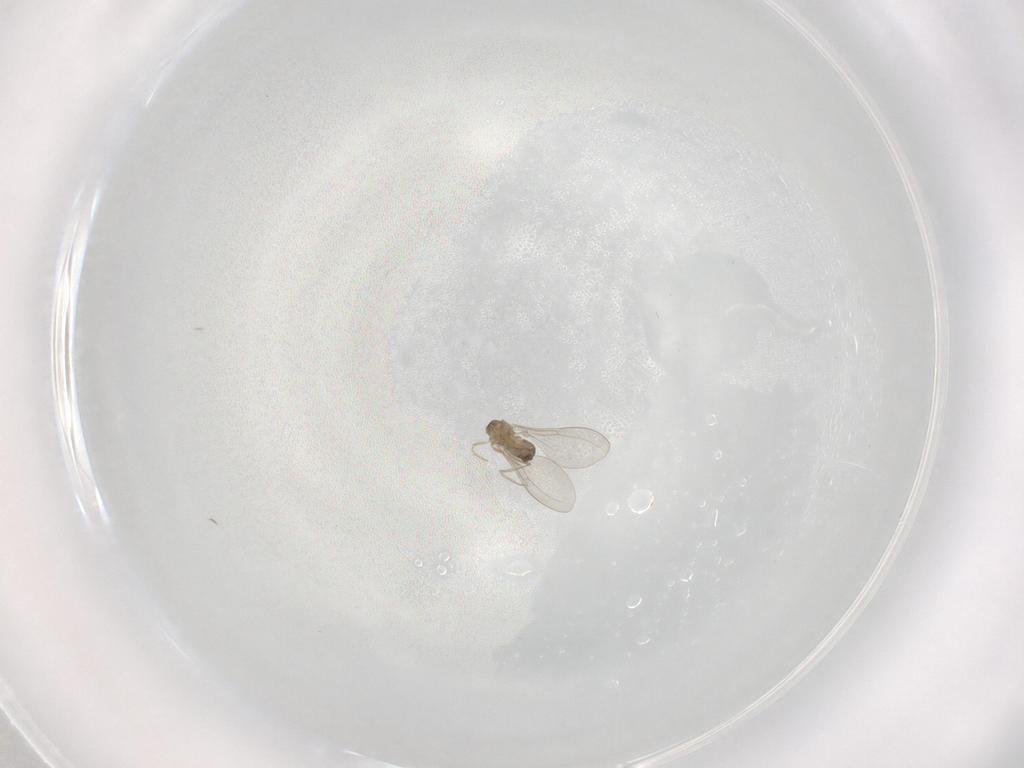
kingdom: Animalia
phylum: Arthropoda
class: Insecta
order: Diptera
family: Cecidomyiidae
